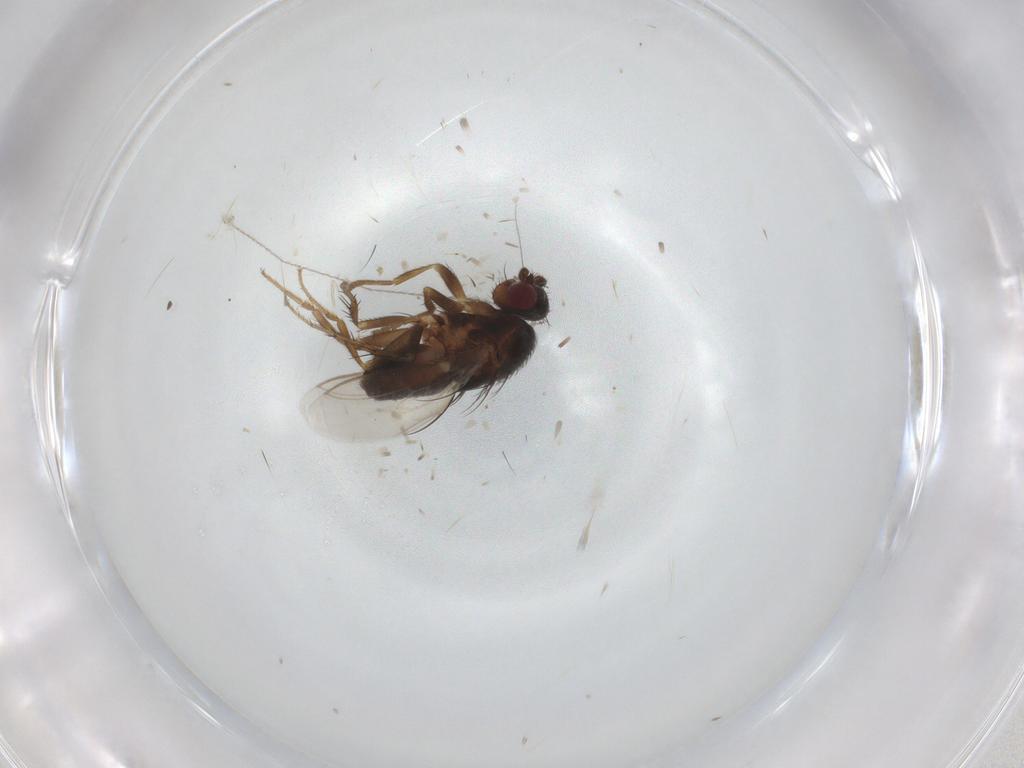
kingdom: Animalia
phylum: Arthropoda
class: Insecta
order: Diptera
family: Sphaeroceridae
